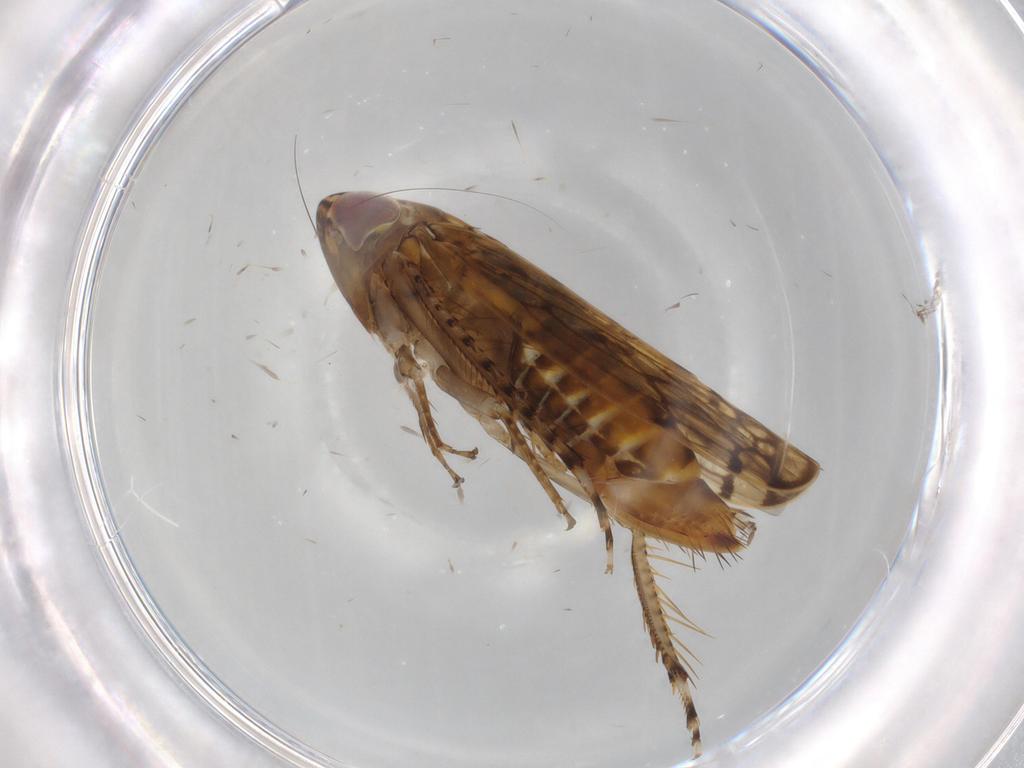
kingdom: Animalia
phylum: Arthropoda
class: Insecta
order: Hemiptera
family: Cicadellidae
